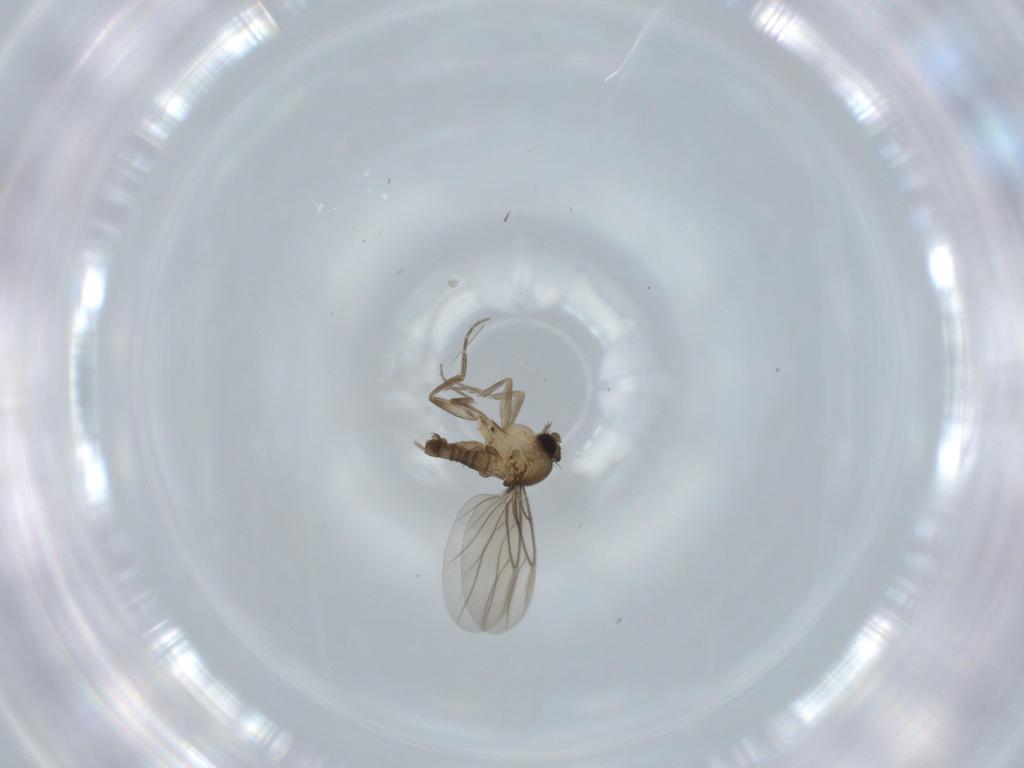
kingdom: Animalia
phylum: Arthropoda
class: Insecta
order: Diptera
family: Phoridae
